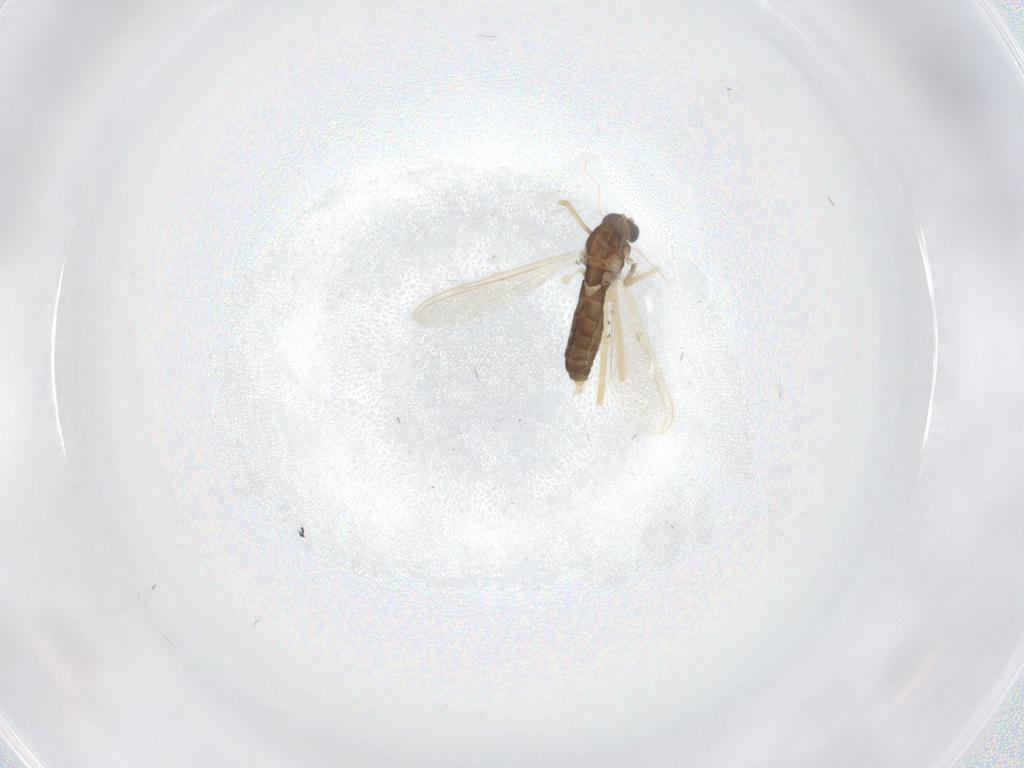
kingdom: Animalia
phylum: Arthropoda
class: Insecta
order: Diptera
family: Chironomidae
